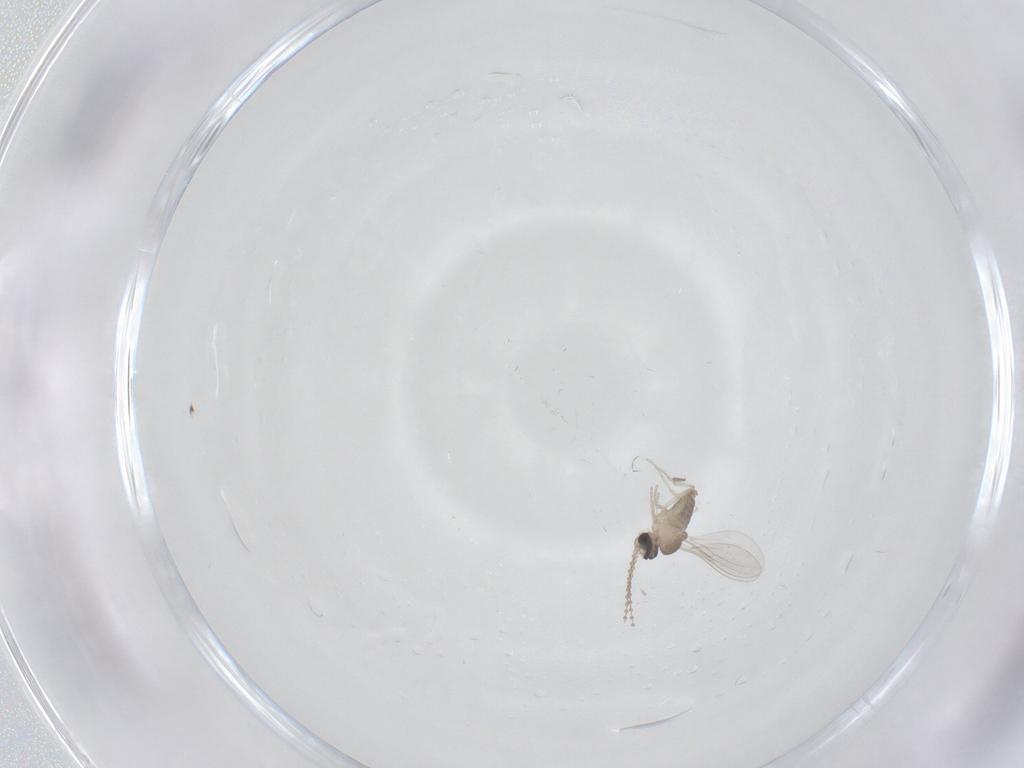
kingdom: Animalia
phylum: Arthropoda
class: Insecta
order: Diptera
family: Cecidomyiidae
